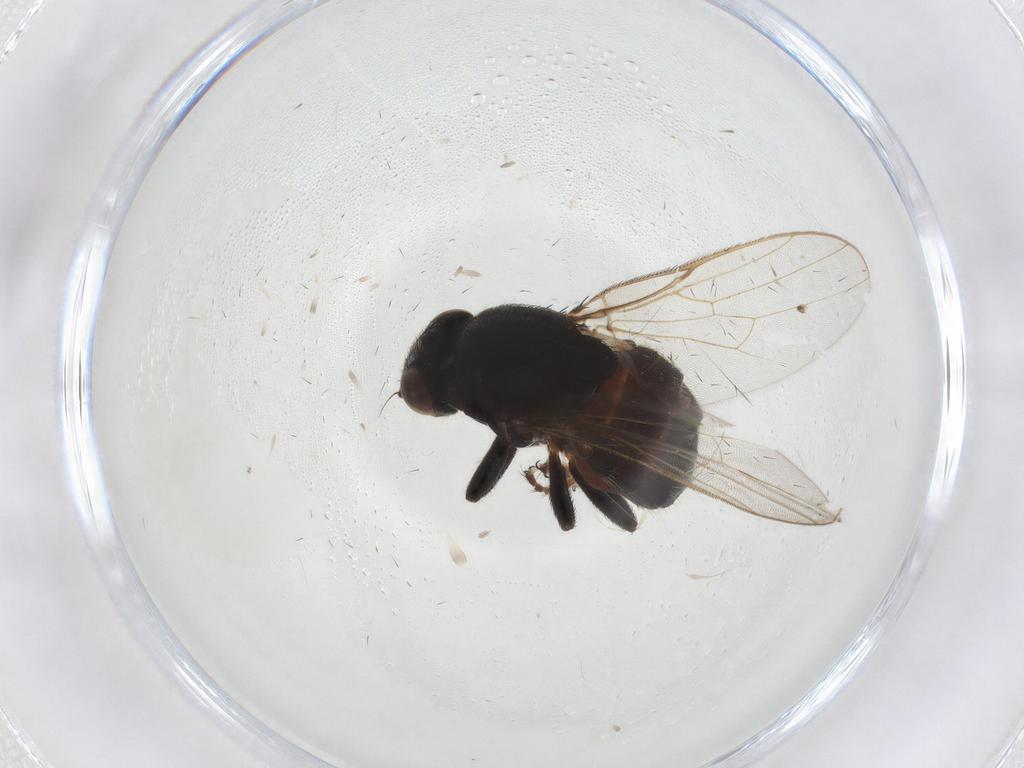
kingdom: Animalia
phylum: Arthropoda
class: Insecta
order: Diptera
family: Chloropidae
